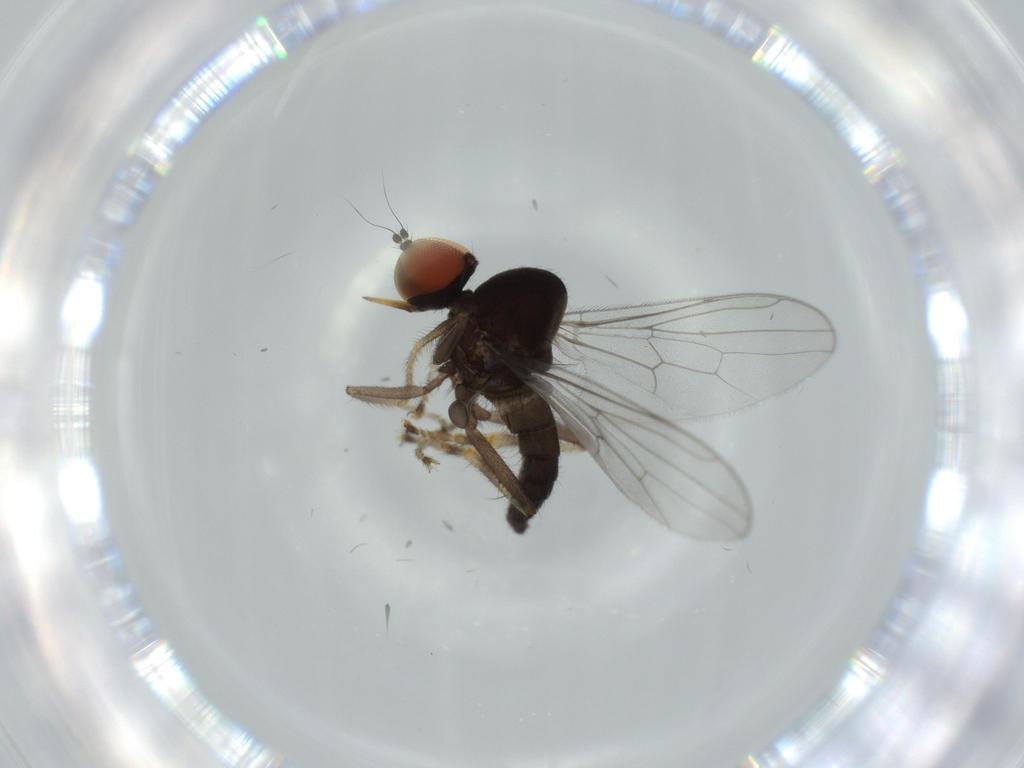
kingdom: Animalia
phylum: Arthropoda
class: Insecta
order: Diptera
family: Hybotidae
